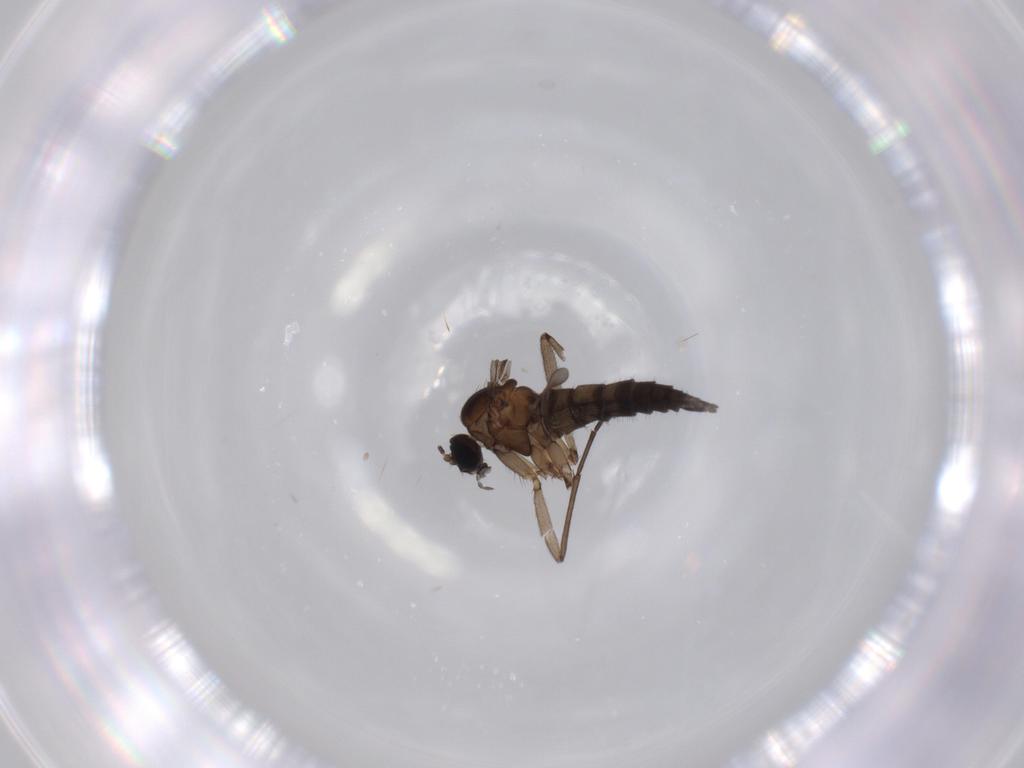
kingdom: Animalia
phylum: Arthropoda
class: Insecta
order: Diptera
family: Sciaridae
